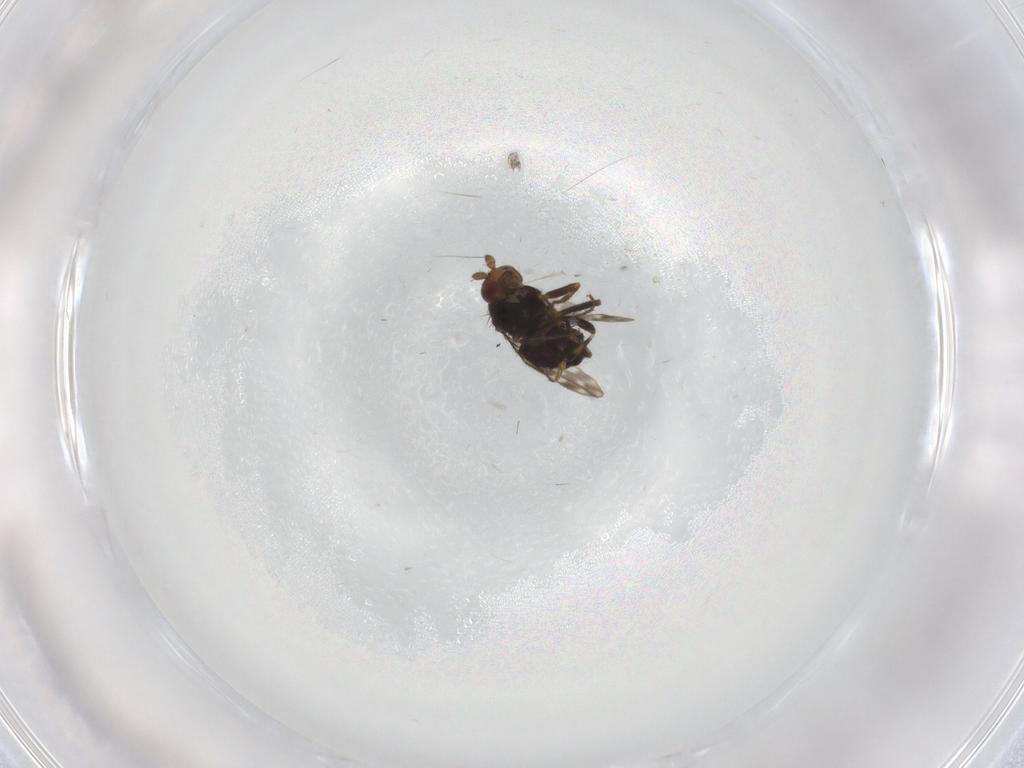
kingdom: Animalia
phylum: Arthropoda
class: Insecta
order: Diptera
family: Sphaeroceridae
